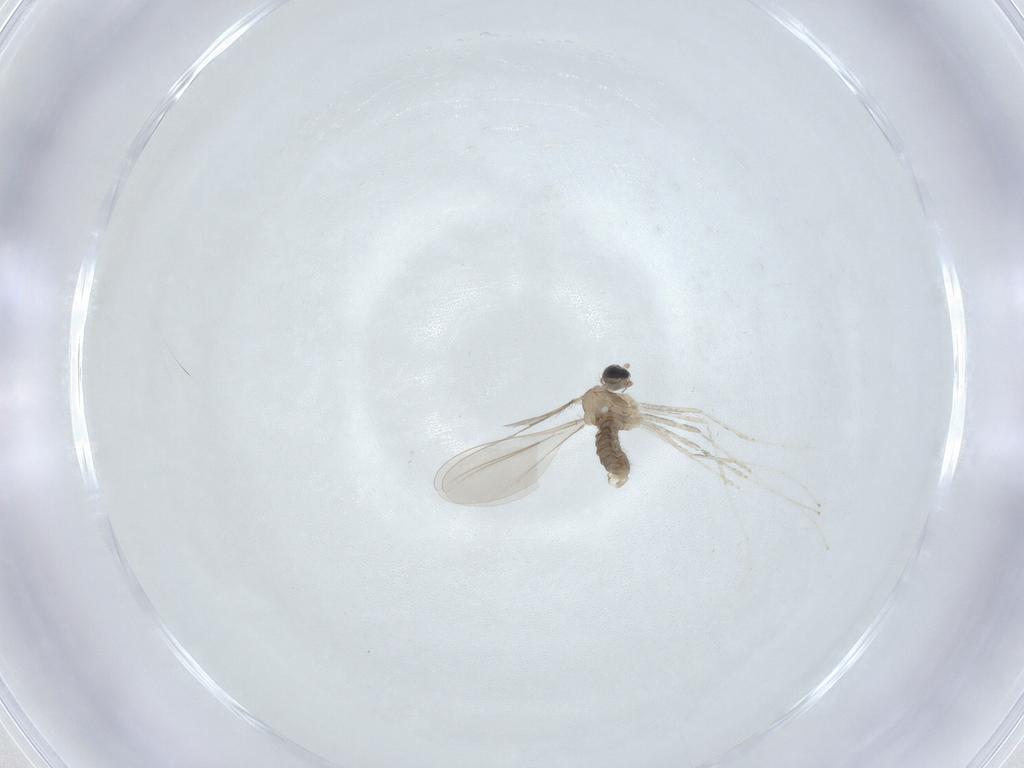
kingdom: Animalia
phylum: Arthropoda
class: Insecta
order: Diptera
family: Cecidomyiidae
